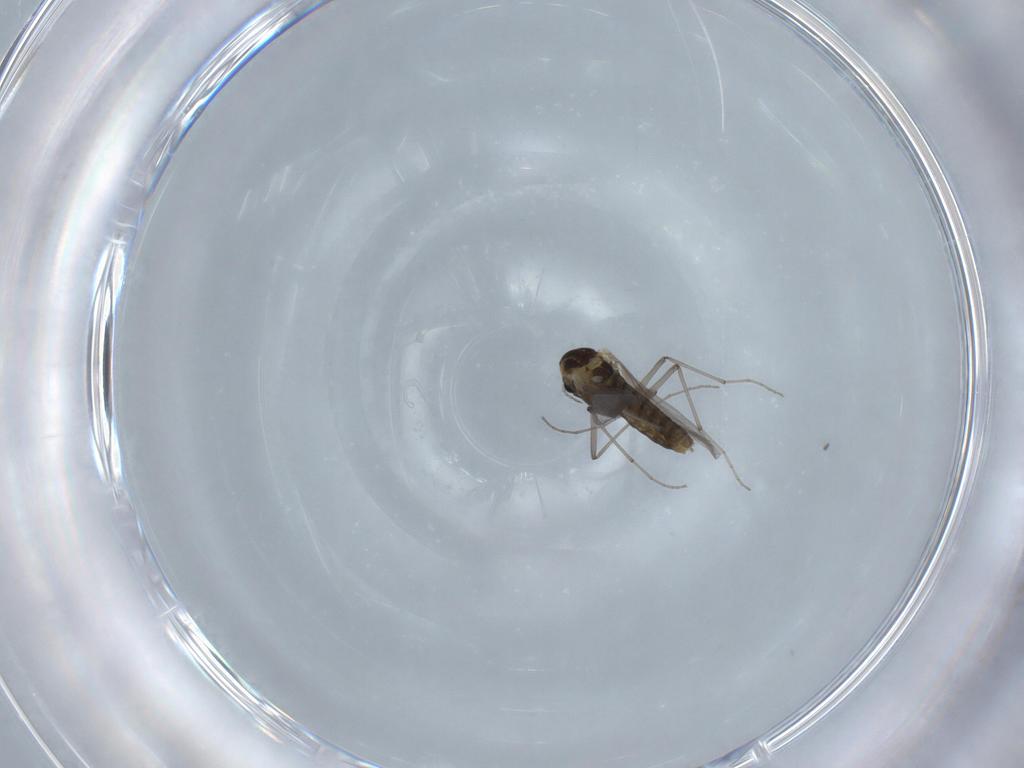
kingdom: Animalia
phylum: Arthropoda
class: Insecta
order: Diptera
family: Chironomidae
